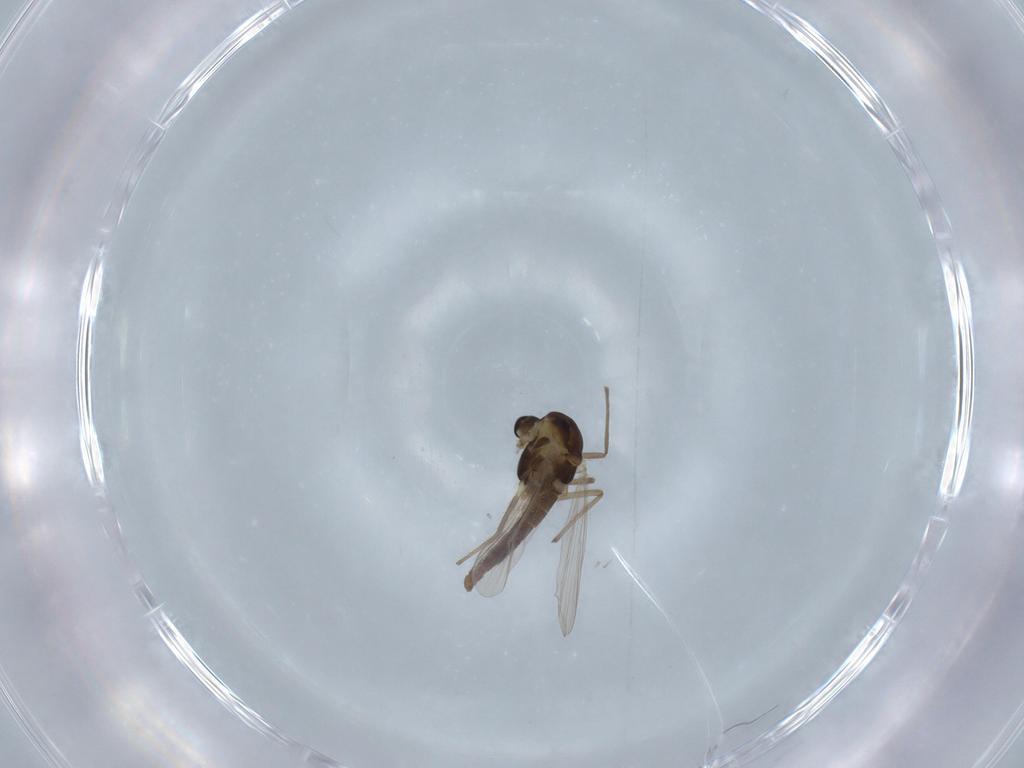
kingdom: Animalia
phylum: Arthropoda
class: Insecta
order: Diptera
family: Chironomidae
